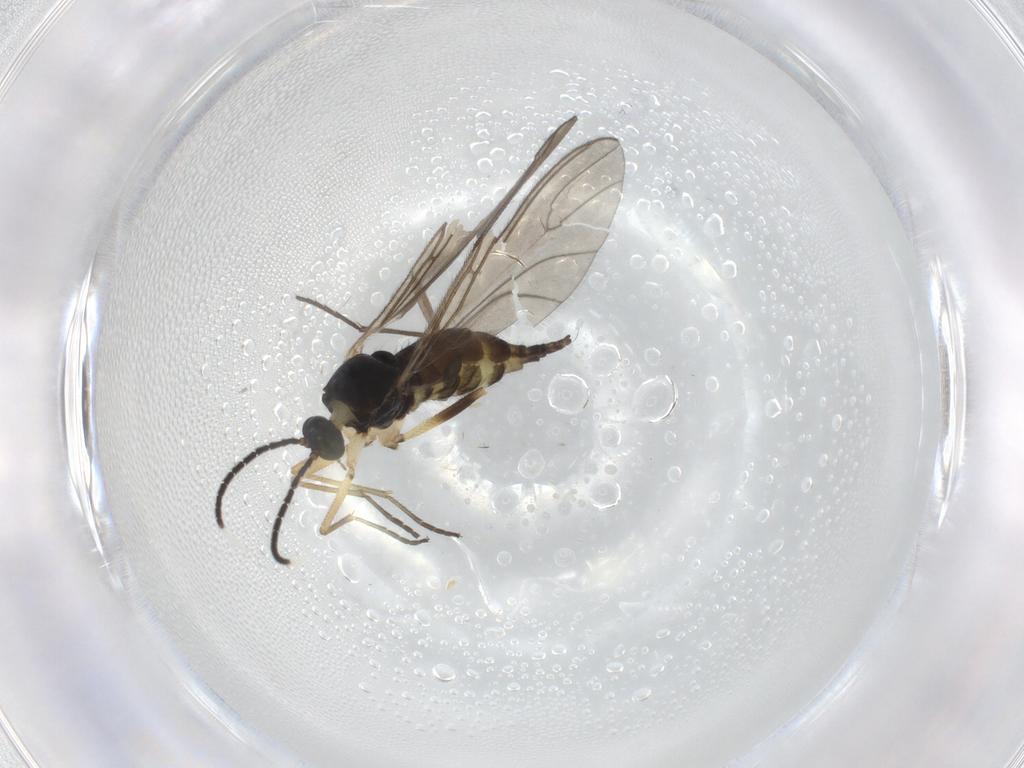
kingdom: Animalia
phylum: Arthropoda
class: Insecta
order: Diptera
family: Sciaridae
